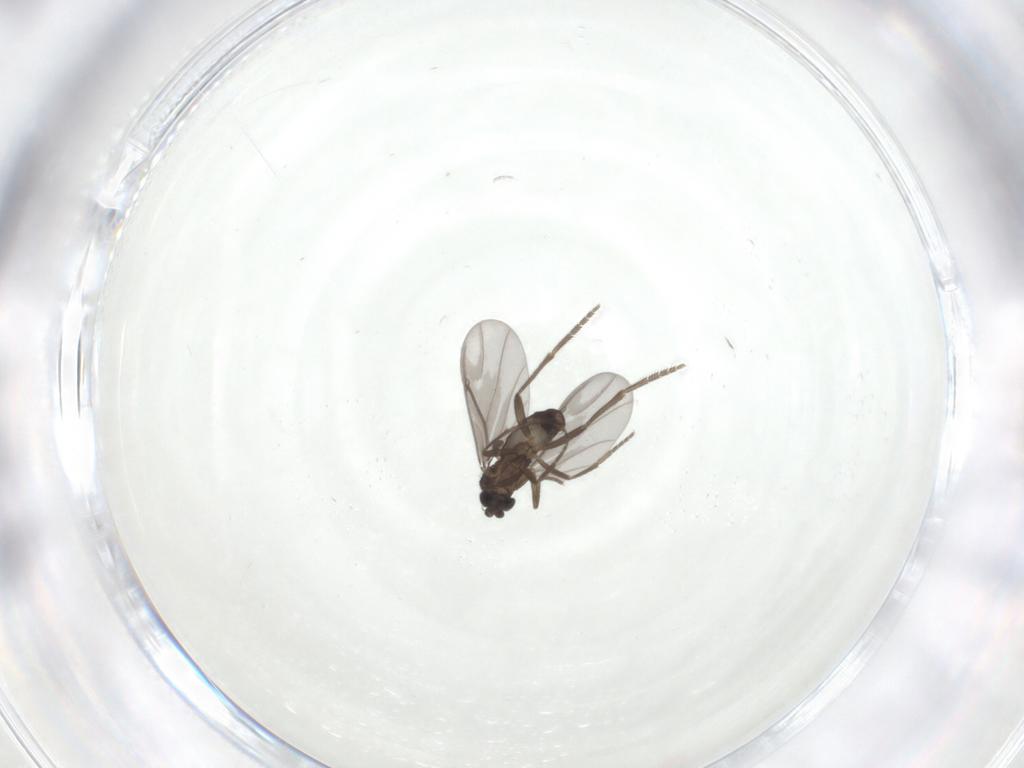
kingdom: Animalia
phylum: Arthropoda
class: Insecta
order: Diptera
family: Phoridae
